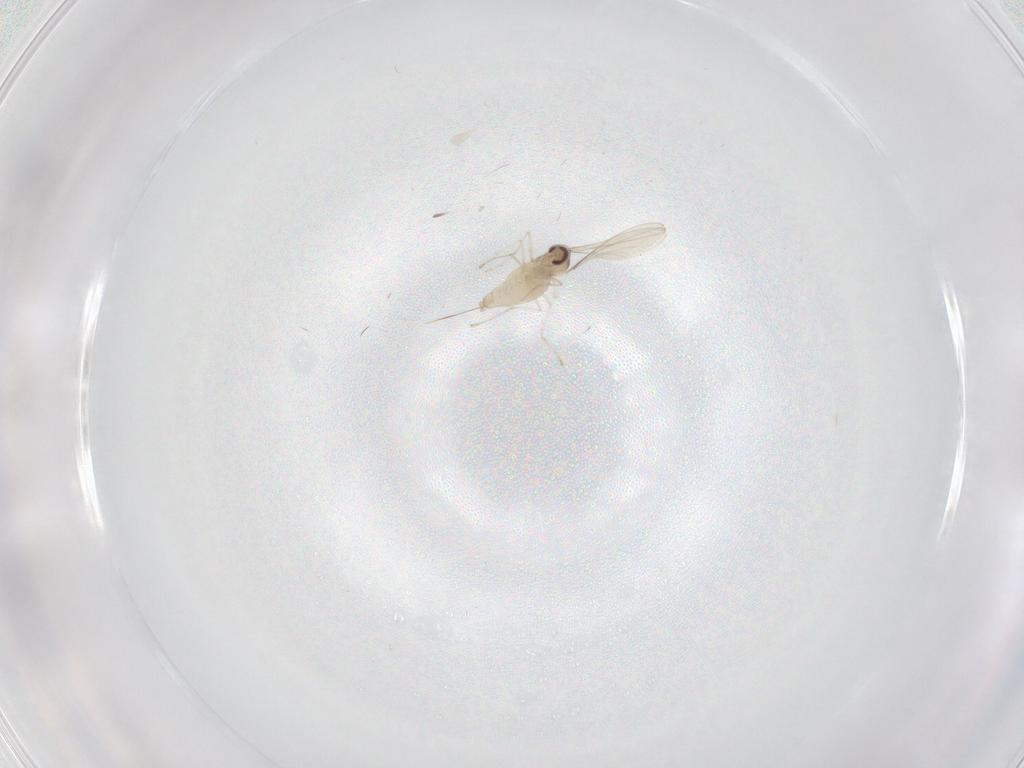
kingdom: Animalia
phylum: Arthropoda
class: Insecta
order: Diptera
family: Cecidomyiidae
